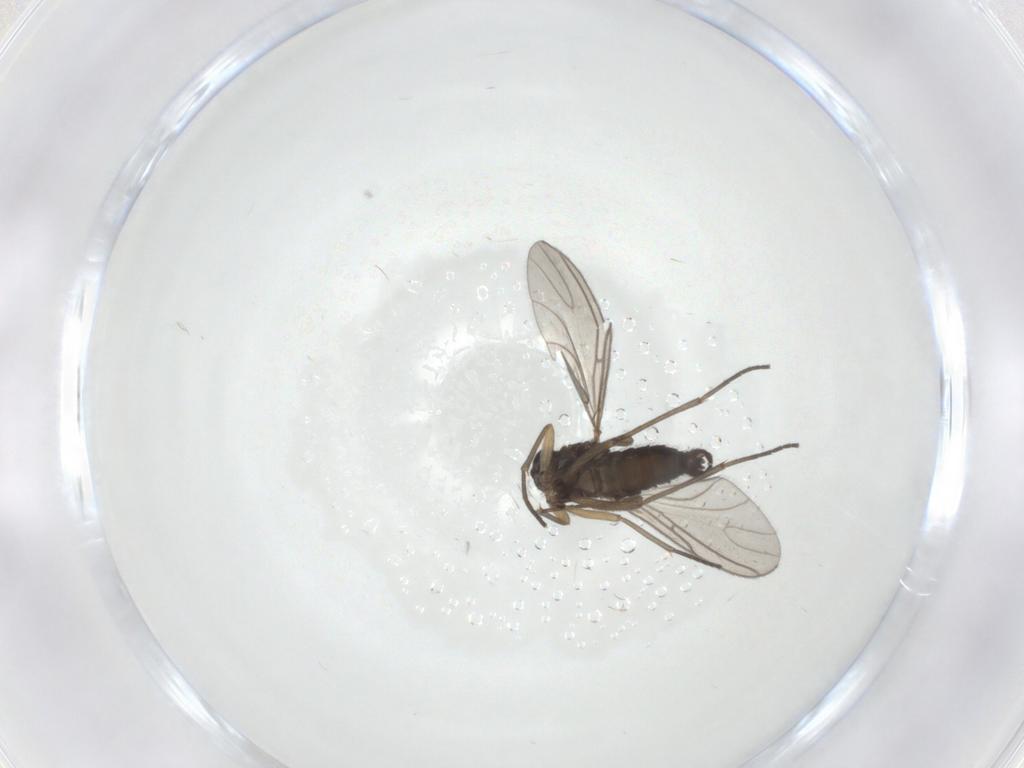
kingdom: Animalia
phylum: Arthropoda
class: Insecta
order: Diptera
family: Sciaridae
